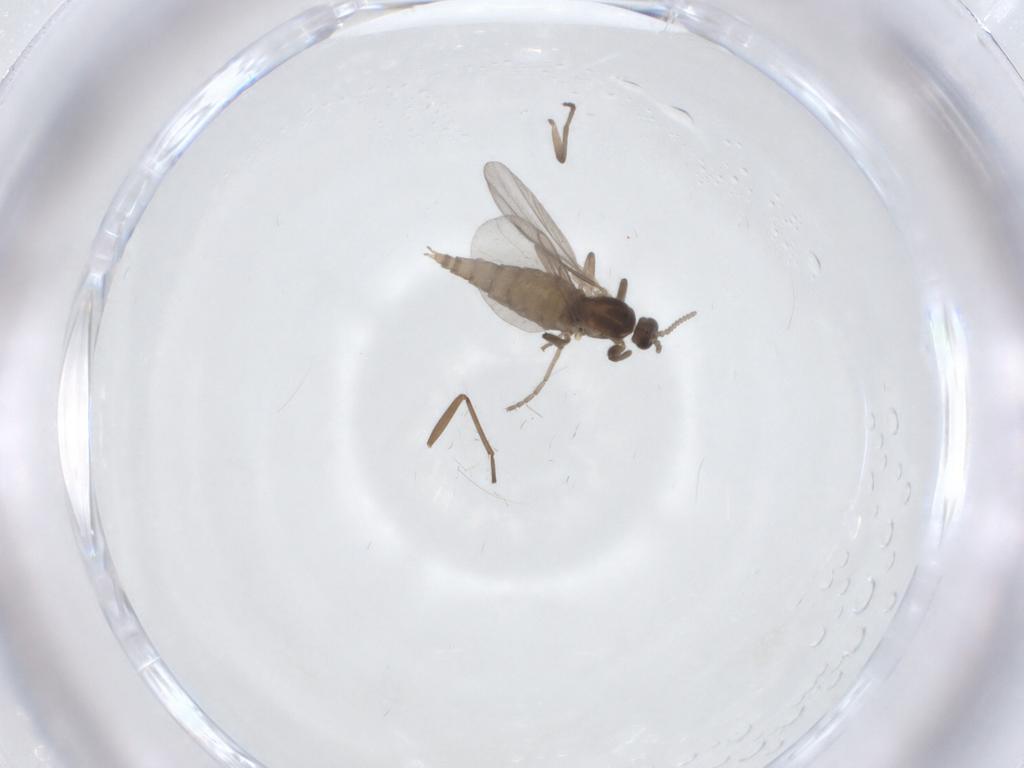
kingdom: Animalia
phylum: Arthropoda
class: Insecta
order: Diptera
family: Cecidomyiidae
